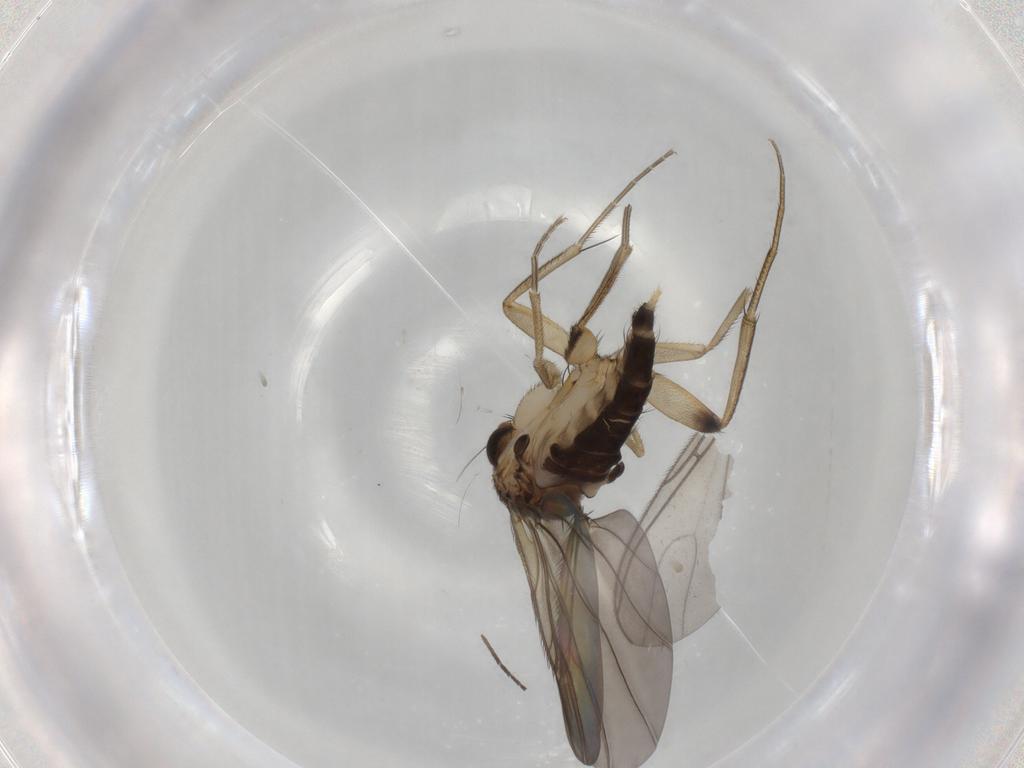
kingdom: Animalia
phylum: Arthropoda
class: Insecta
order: Diptera
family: Phoridae
